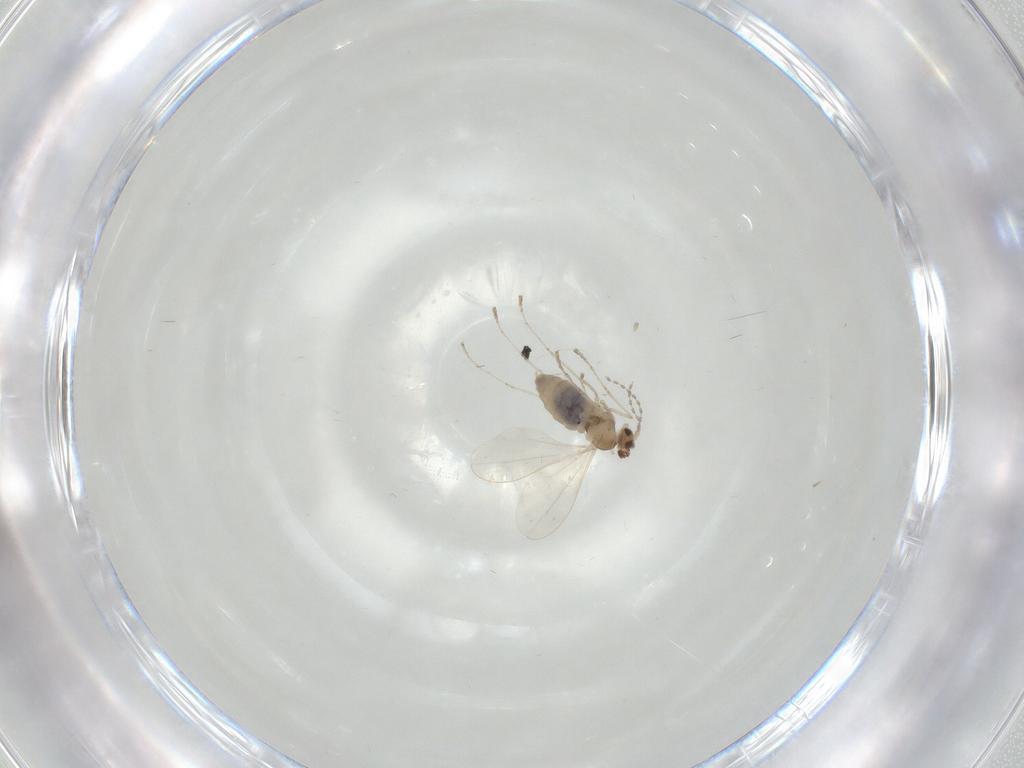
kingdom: Animalia
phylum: Arthropoda
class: Insecta
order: Diptera
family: Cecidomyiidae
